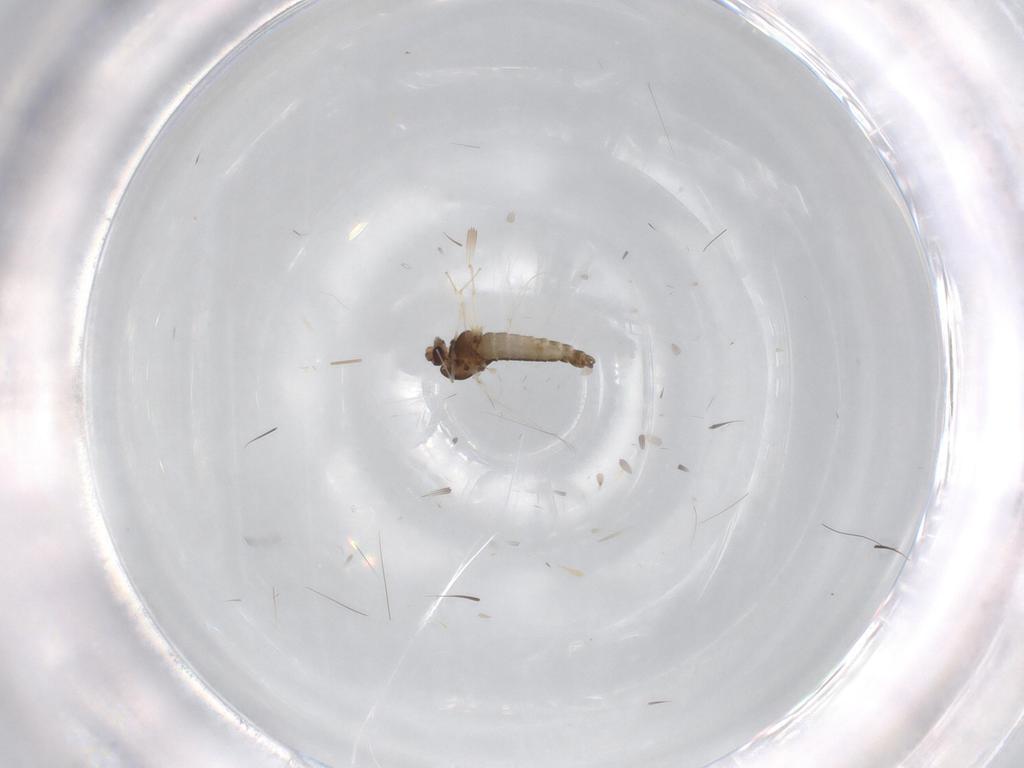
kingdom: Animalia
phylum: Arthropoda
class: Insecta
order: Diptera
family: Chironomidae
